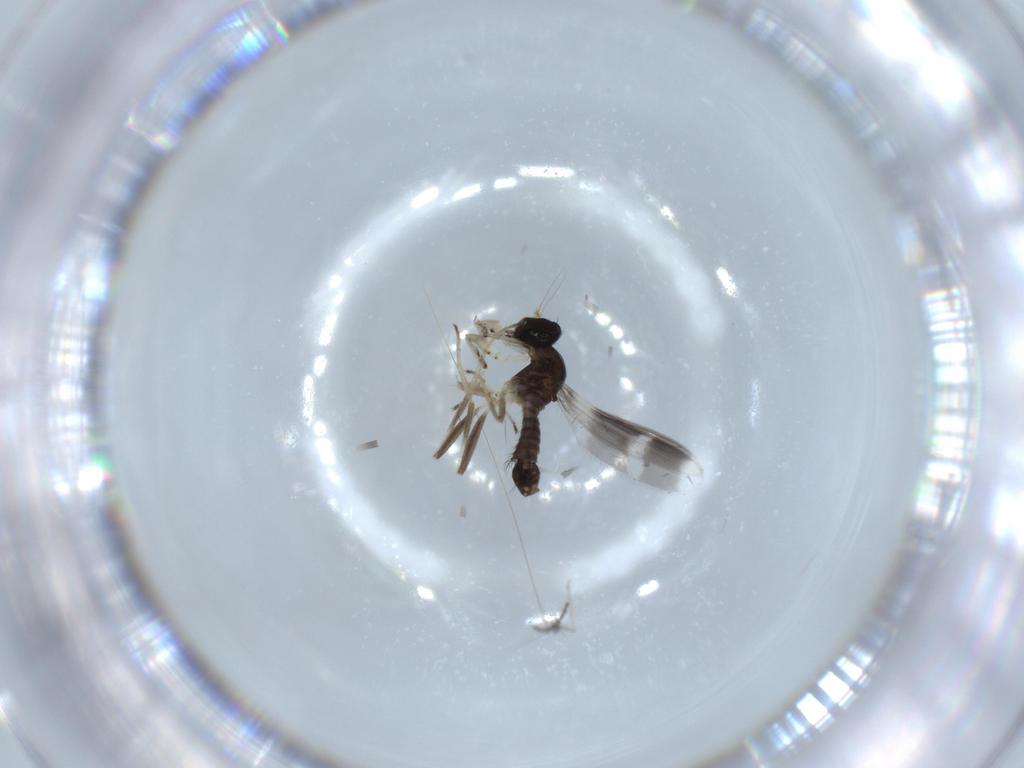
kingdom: Animalia
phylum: Arthropoda
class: Insecta
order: Diptera
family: Hybotidae
